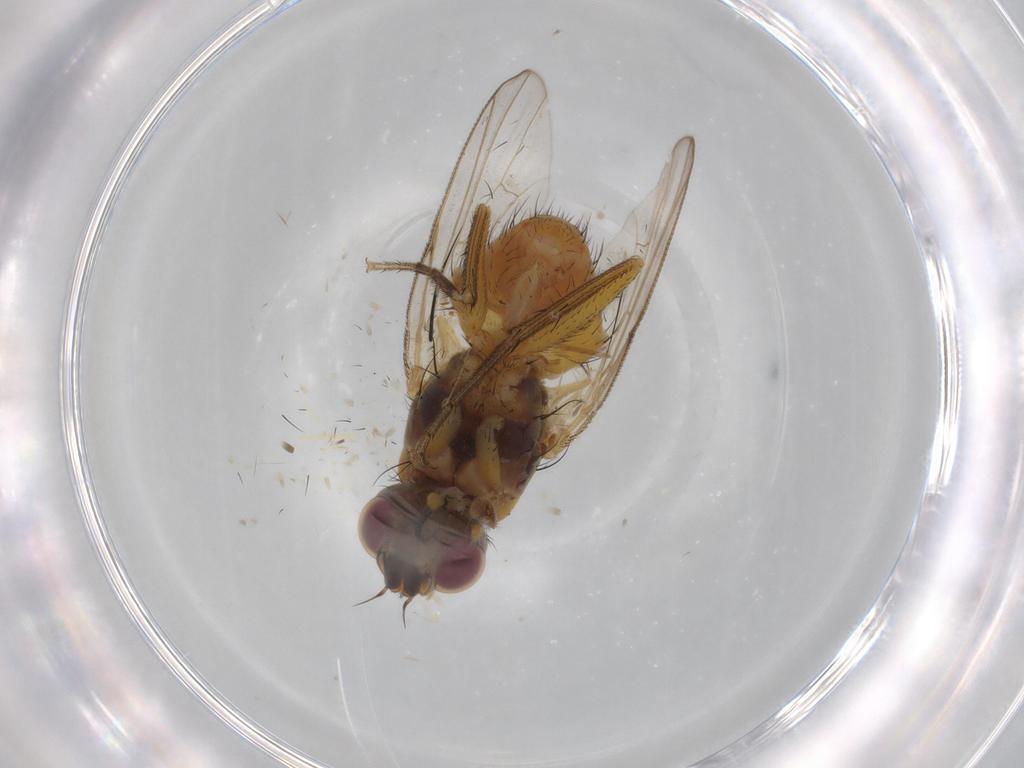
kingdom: Animalia
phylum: Arthropoda
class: Insecta
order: Diptera
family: Muscidae
